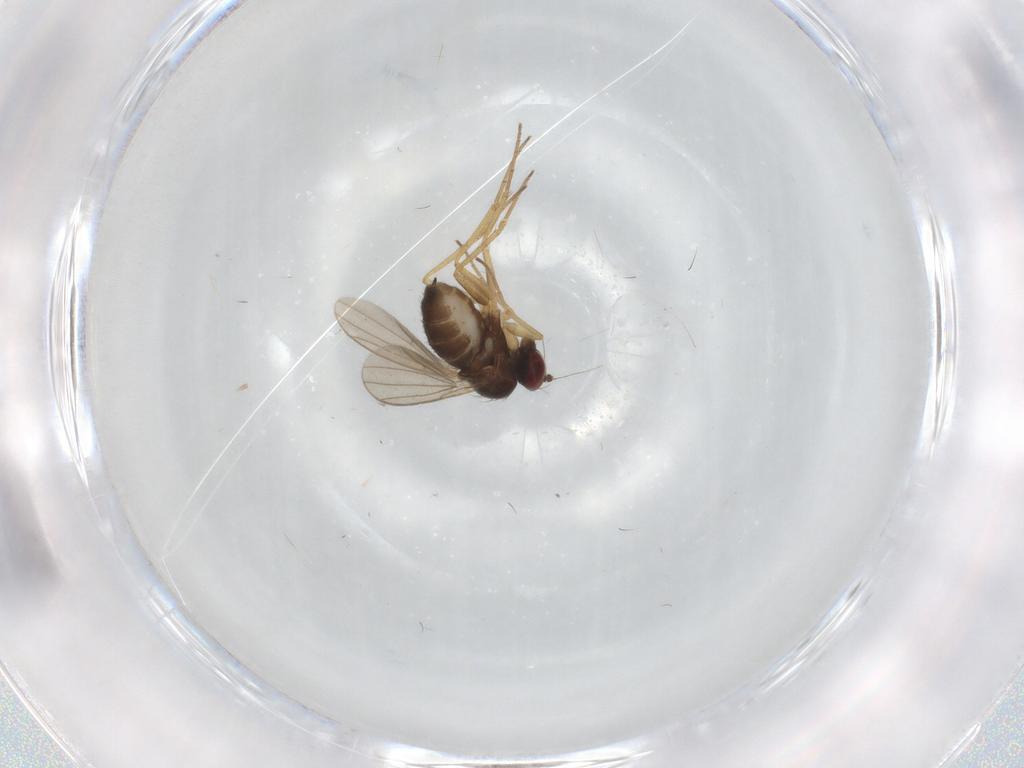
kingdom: Animalia
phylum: Arthropoda
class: Insecta
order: Diptera
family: Dolichopodidae
